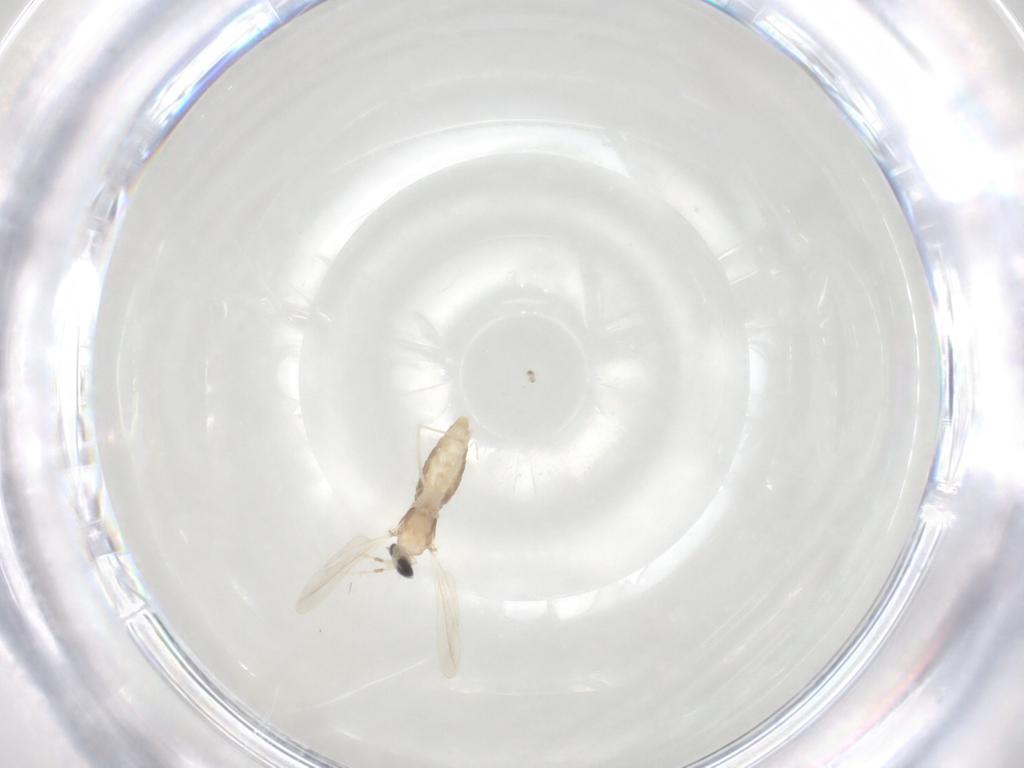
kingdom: Animalia
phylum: Arthropoda
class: Insecta
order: Diptera
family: Cecidomyiidae
